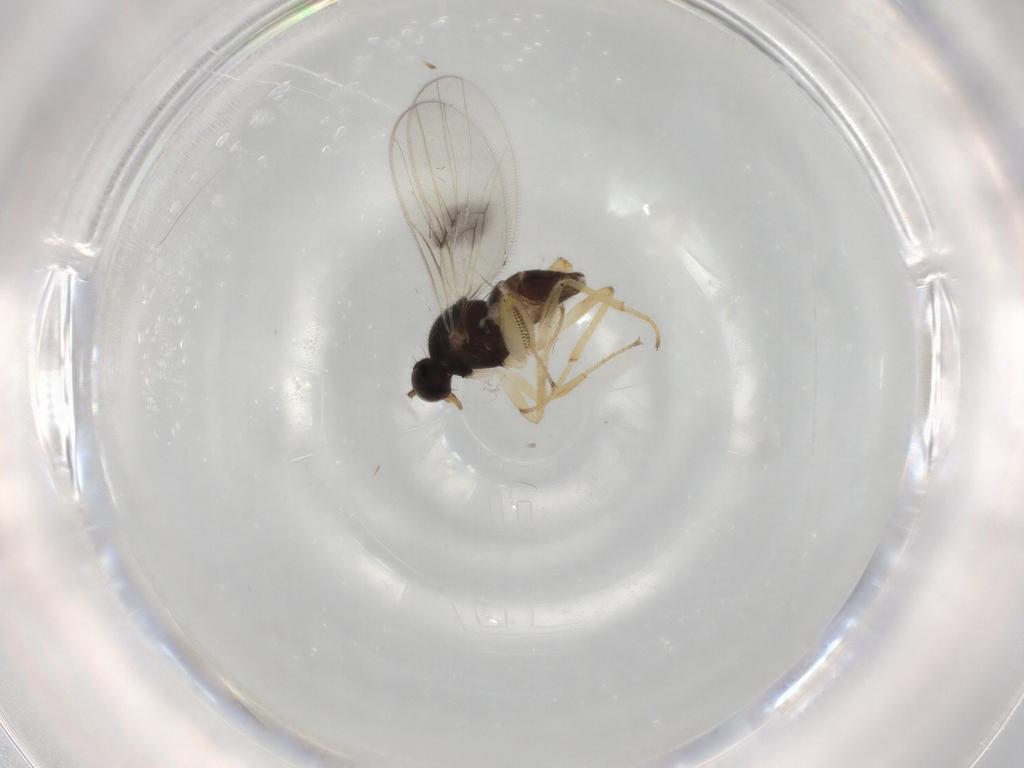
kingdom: Animalia
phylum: Arthropoda
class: Insecta
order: Diptera
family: Hybotidae
